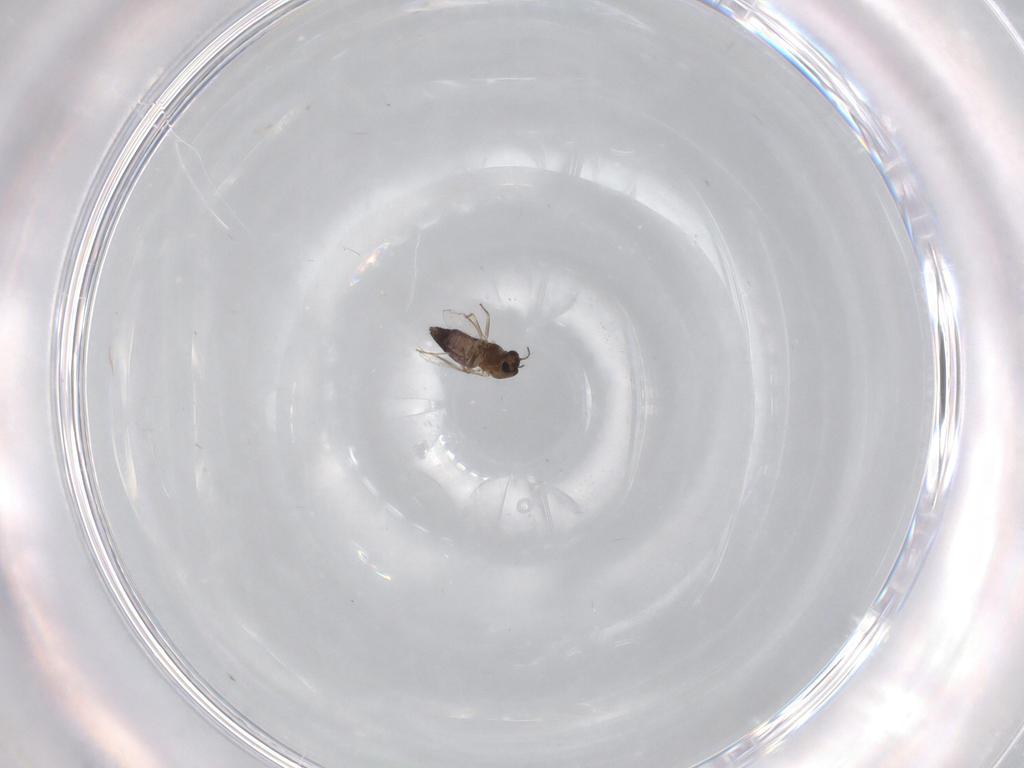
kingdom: Animalia
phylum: Arthropoda
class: Insecta
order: Diptera
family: Chironomidae
